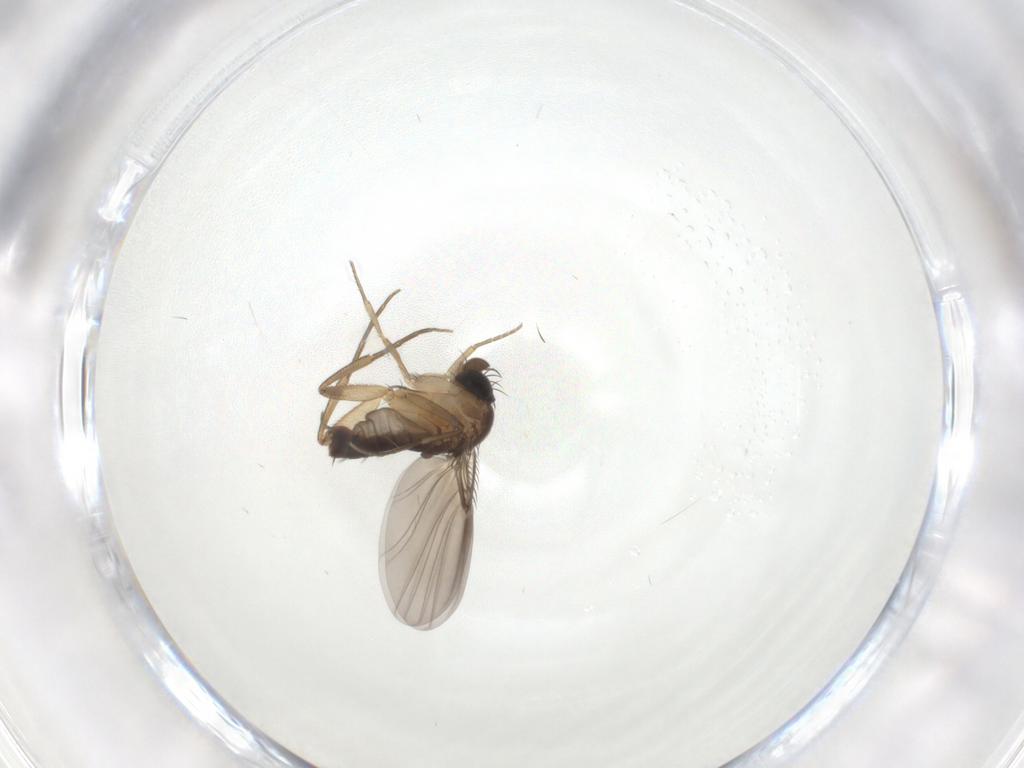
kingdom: Animalia
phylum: Arthropoda
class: Insecta
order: Diptera
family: Phoridae
